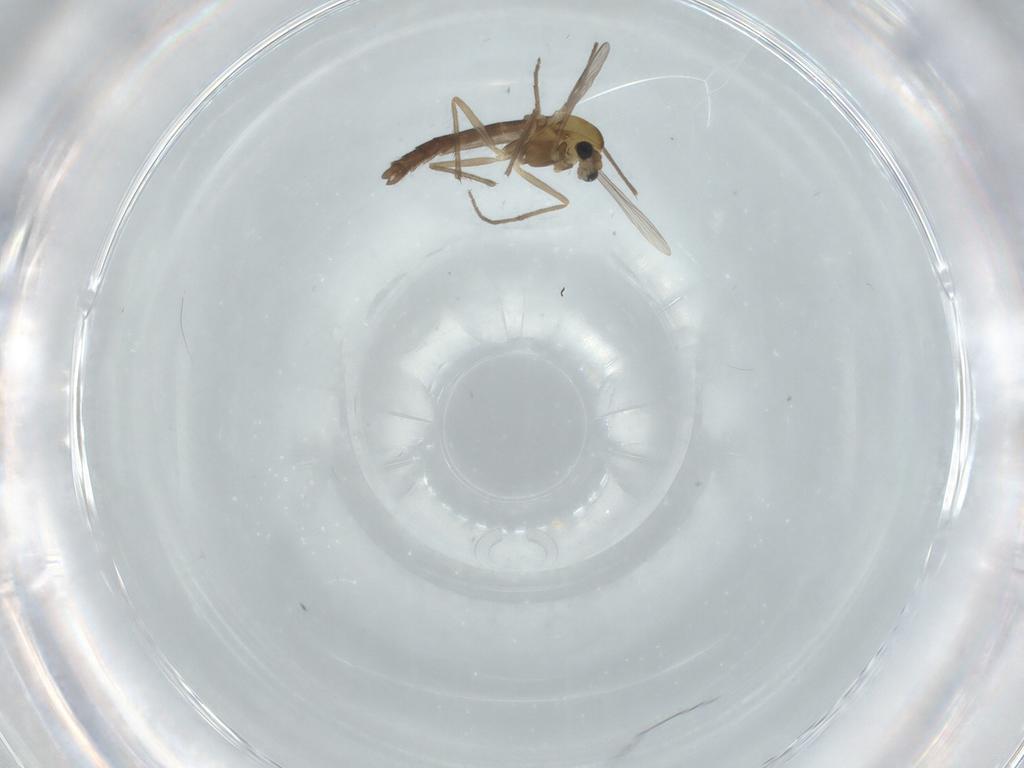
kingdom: Animalia
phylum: Arthropoda
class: Insecta
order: Diptera
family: Chironomidae
